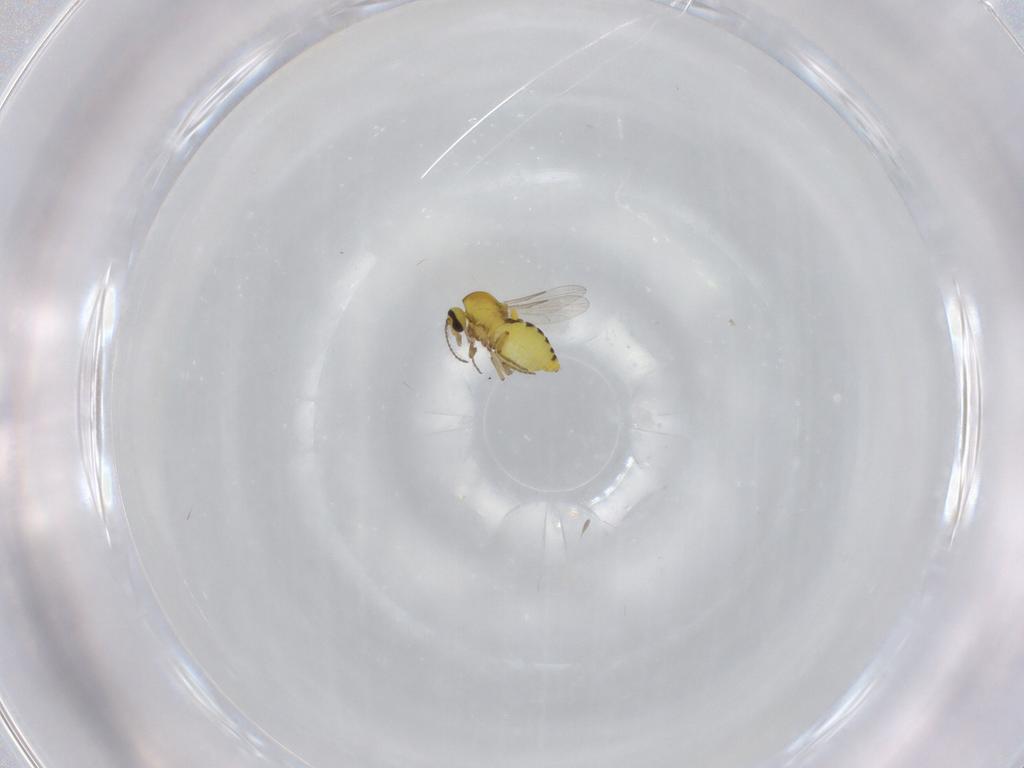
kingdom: Animalia
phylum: Arthropoda
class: Insecta
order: Diptera
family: Ceratopogonidae
